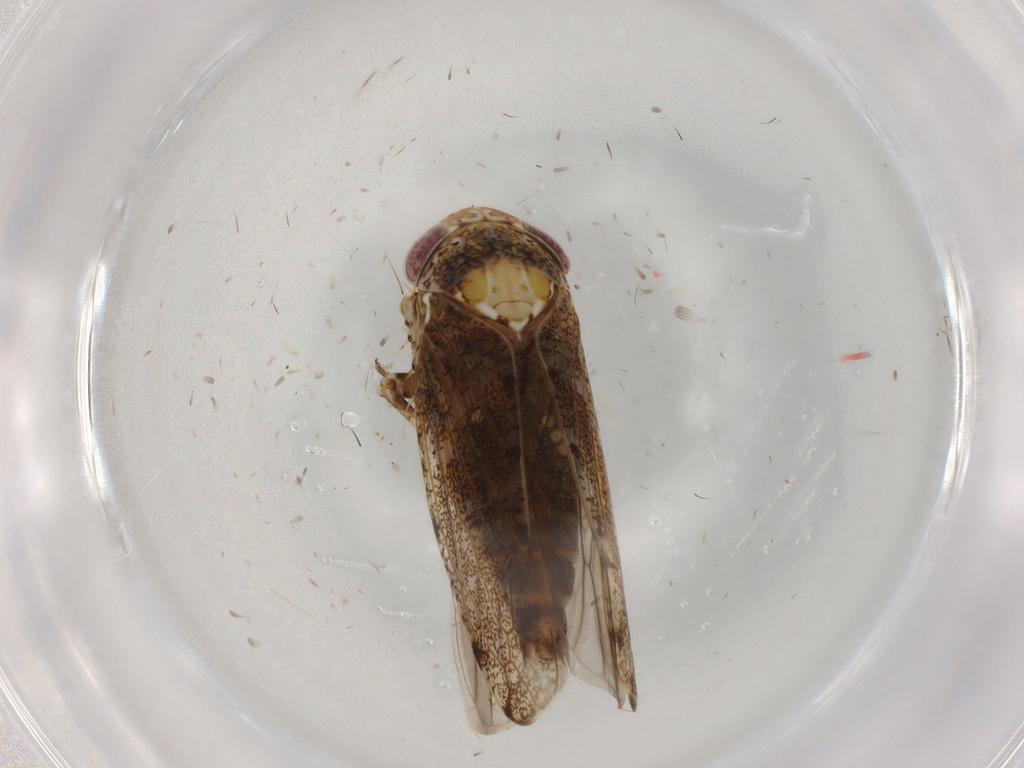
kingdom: Animalia
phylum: Arthropoda
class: Insecta
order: Hemiptera
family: Cicadellidae
